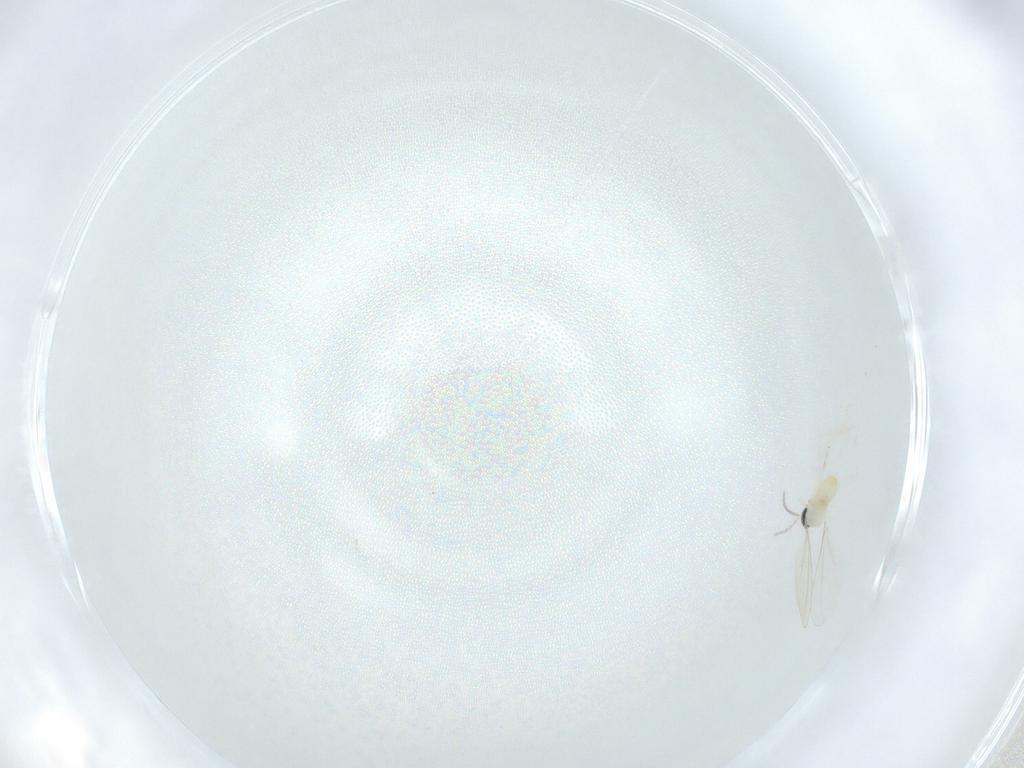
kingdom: Animalia
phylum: Arthropoda
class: Insecta
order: Diptera
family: Cecidomyiidae
